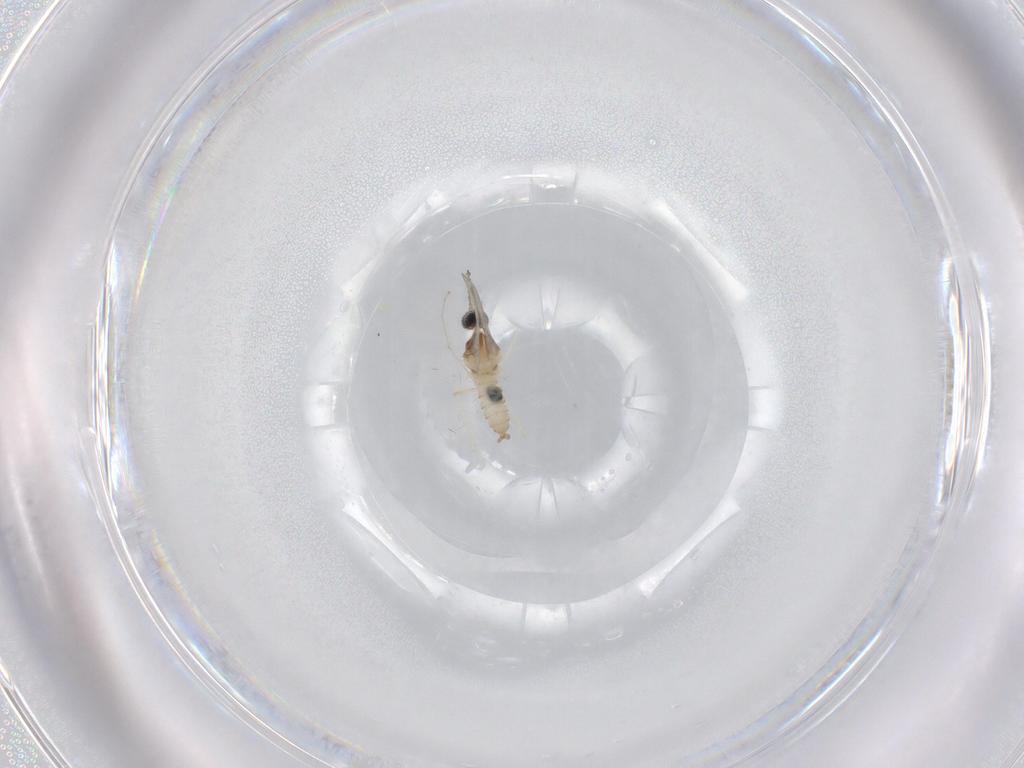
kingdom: Animalia
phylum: Arthropoda
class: Insecta
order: Diptera
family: Cecidomyiidae
